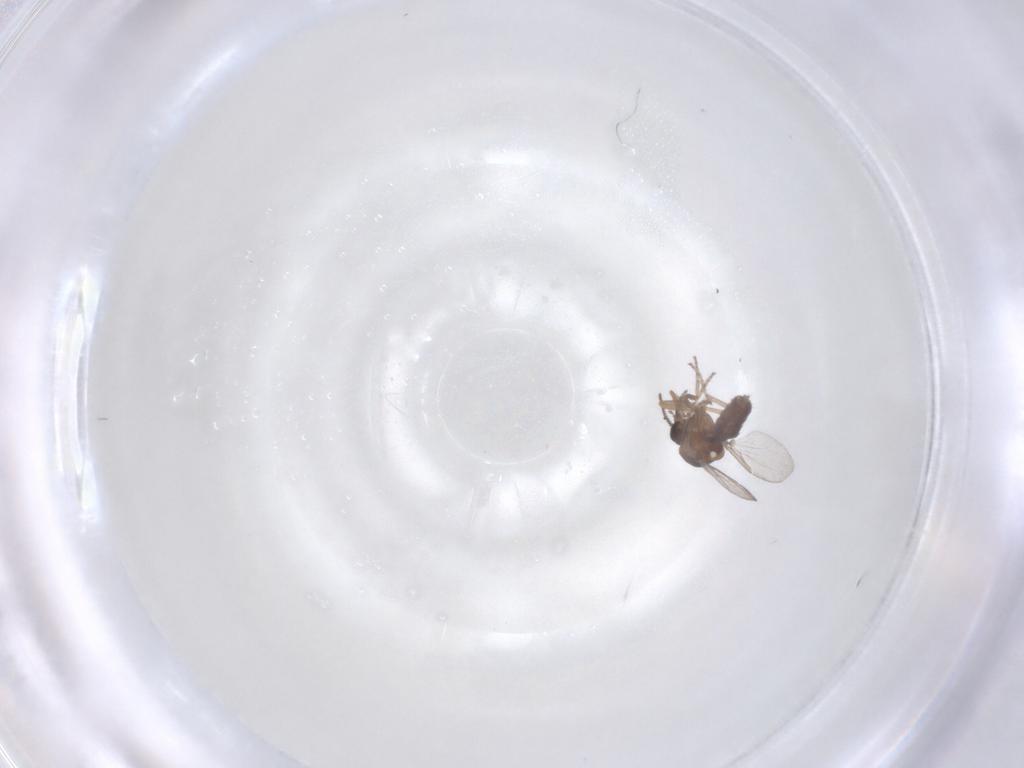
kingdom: Animalia
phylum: Arthropoda
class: Insecta
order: Diptera
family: Ceratopogonidae
